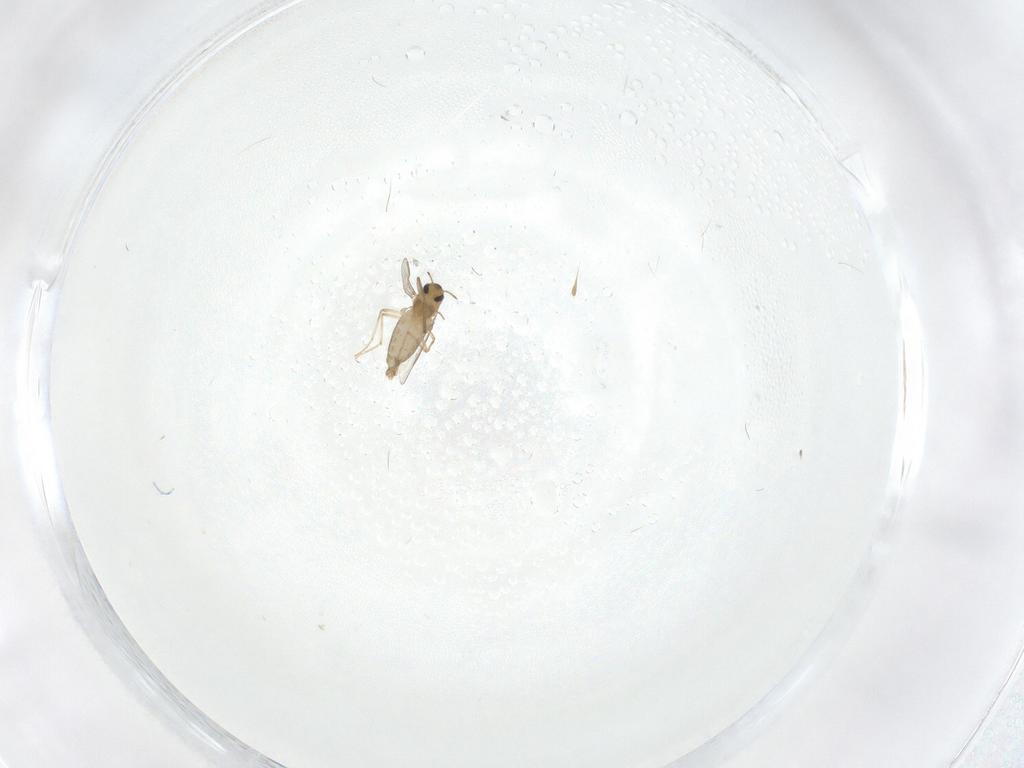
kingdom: Animalia
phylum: Arthropoda
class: Insecta
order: Diptera
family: Chironomidae
